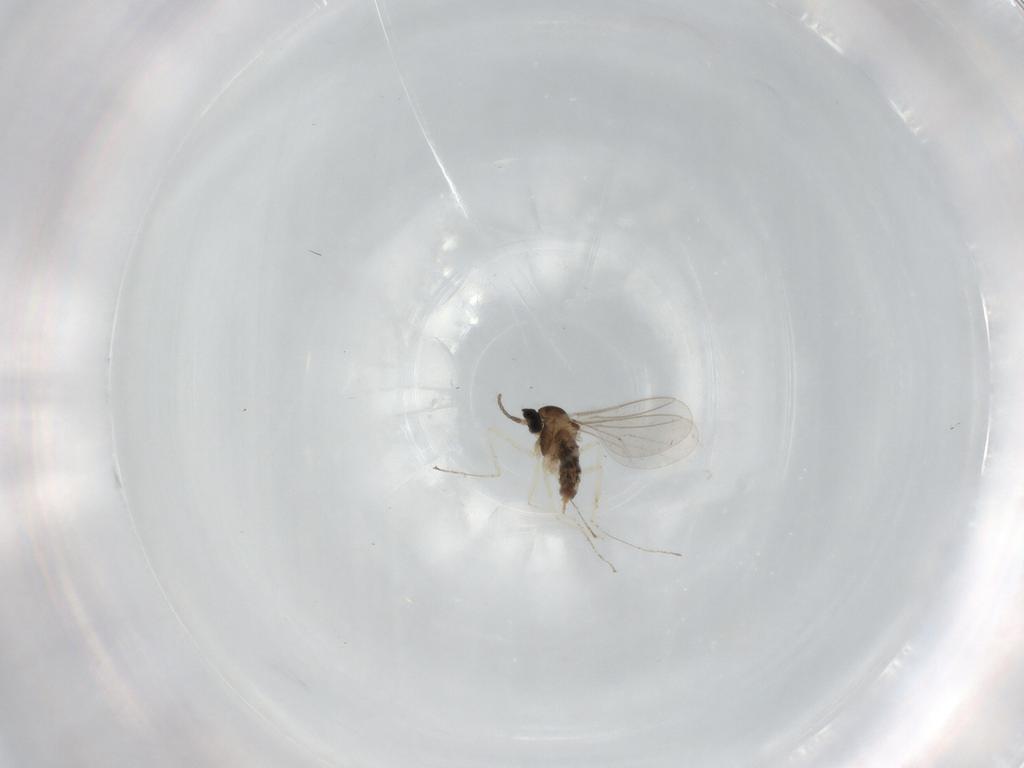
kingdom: Animalia
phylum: Arthropoda
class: Insecta
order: Diptera
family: Cecidomyiidae
